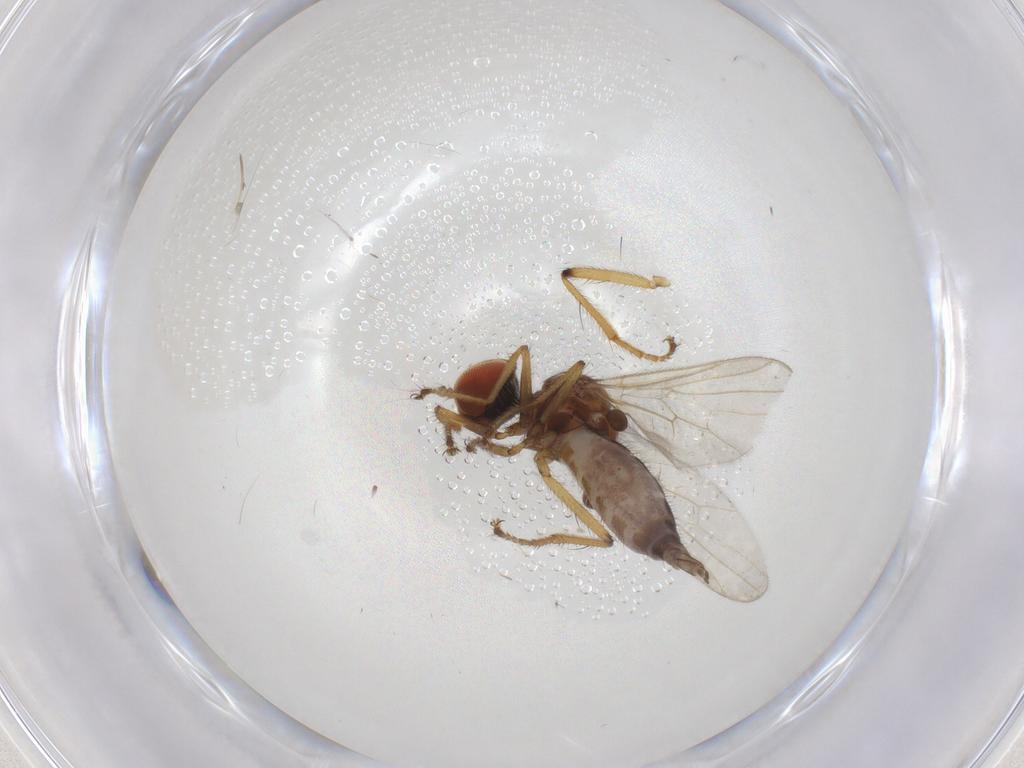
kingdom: Animalia
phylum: Arthropoda
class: Insecta
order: Diptera
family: Hybotidae
